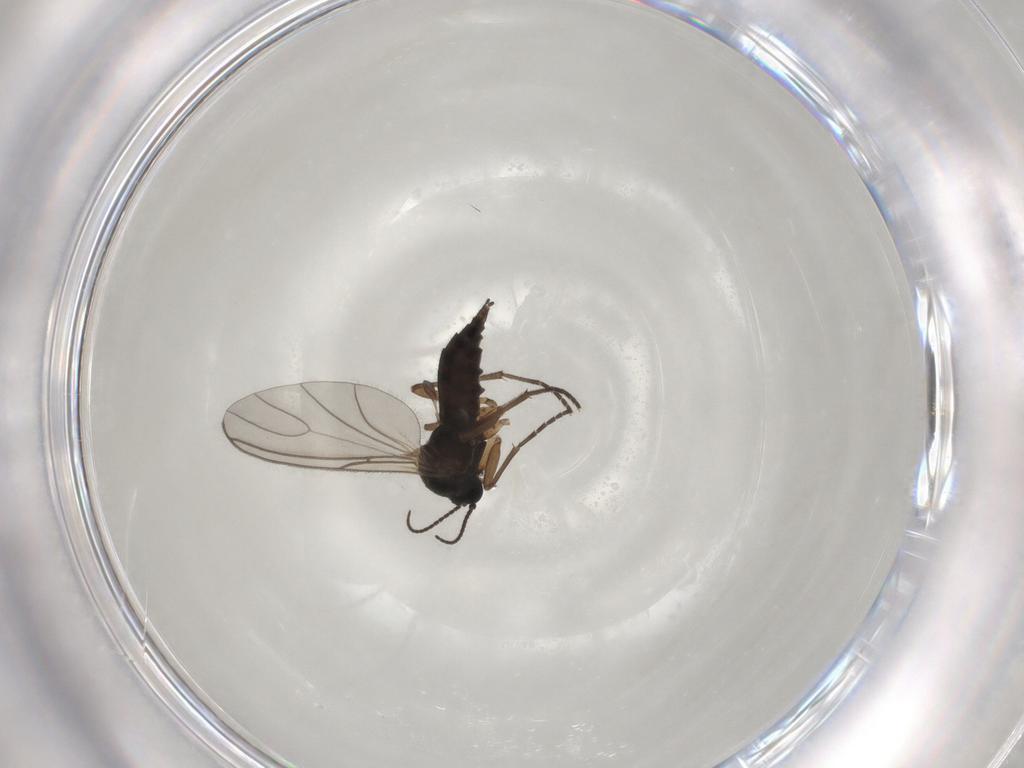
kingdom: Animalia
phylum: Arthropoda
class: Insecta
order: Diptera
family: Sciaridae
